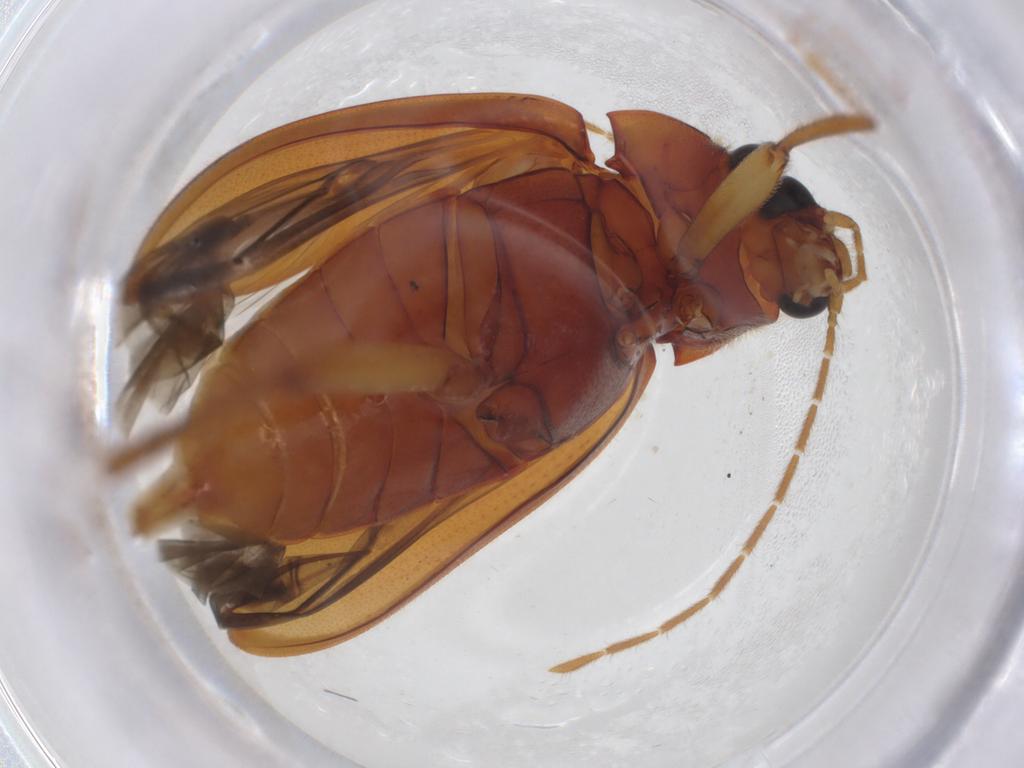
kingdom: Animalia
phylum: Arthropoda
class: Insecta
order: Coleoptera
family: Ptilodactylidae
